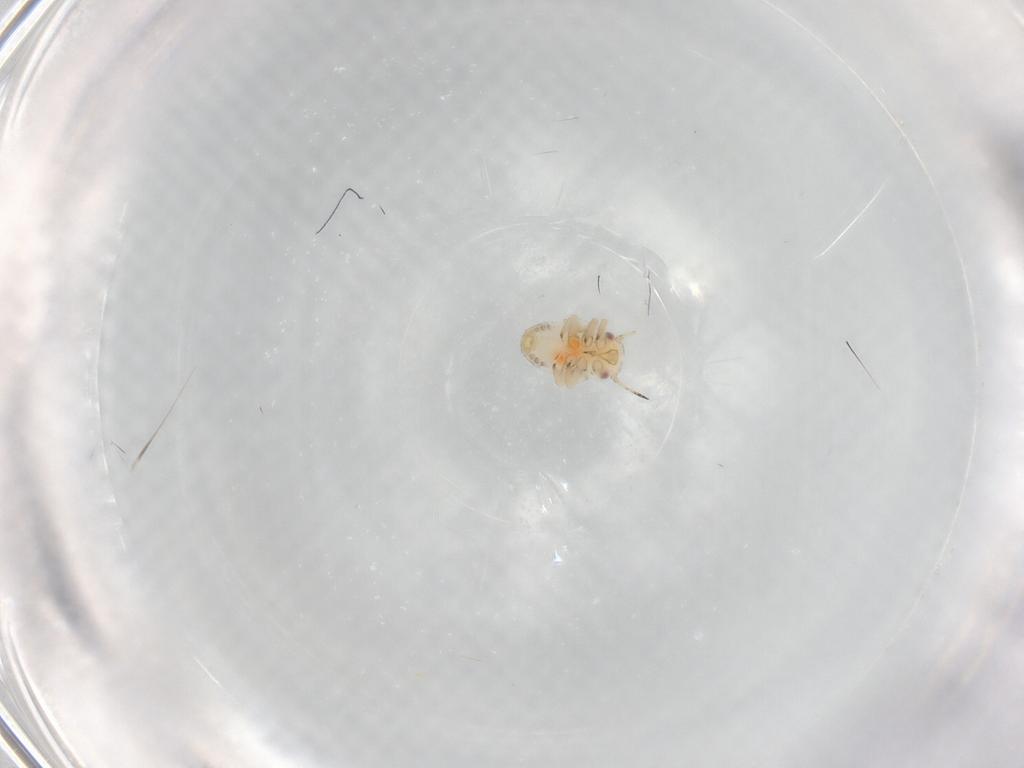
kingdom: Animalia
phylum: Arthropoda
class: Insecta
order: Hemiptera
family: Psyllidae
